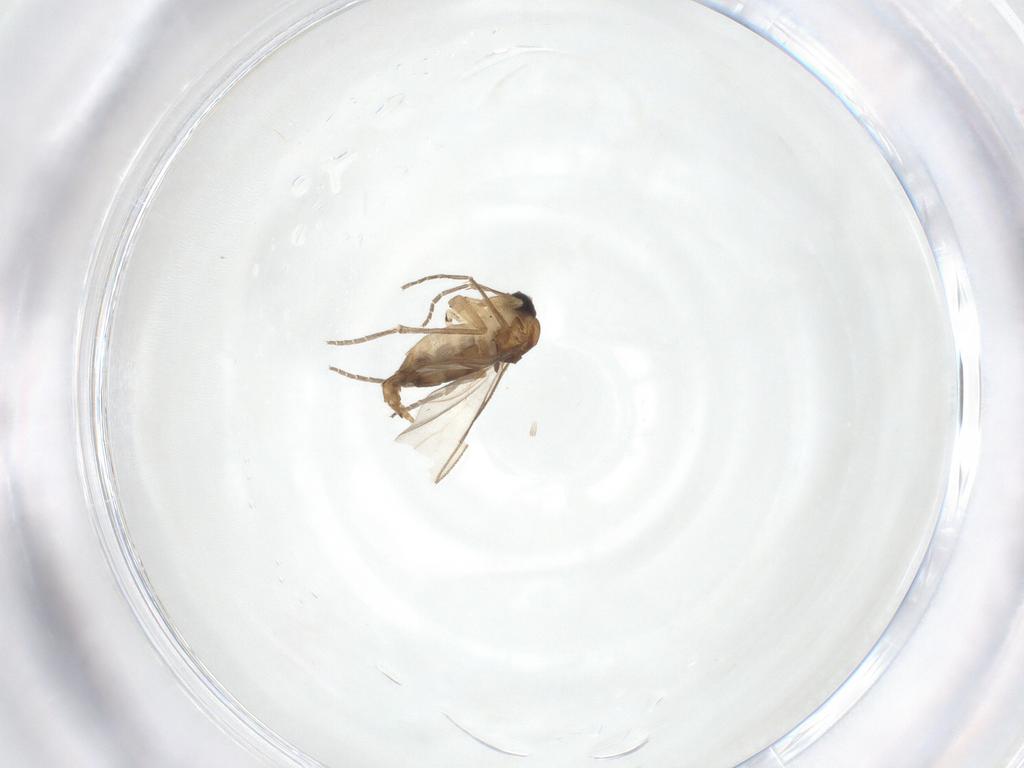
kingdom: Animalia
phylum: Arthropoda
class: Insecta
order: Diptera
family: Sciaridae
